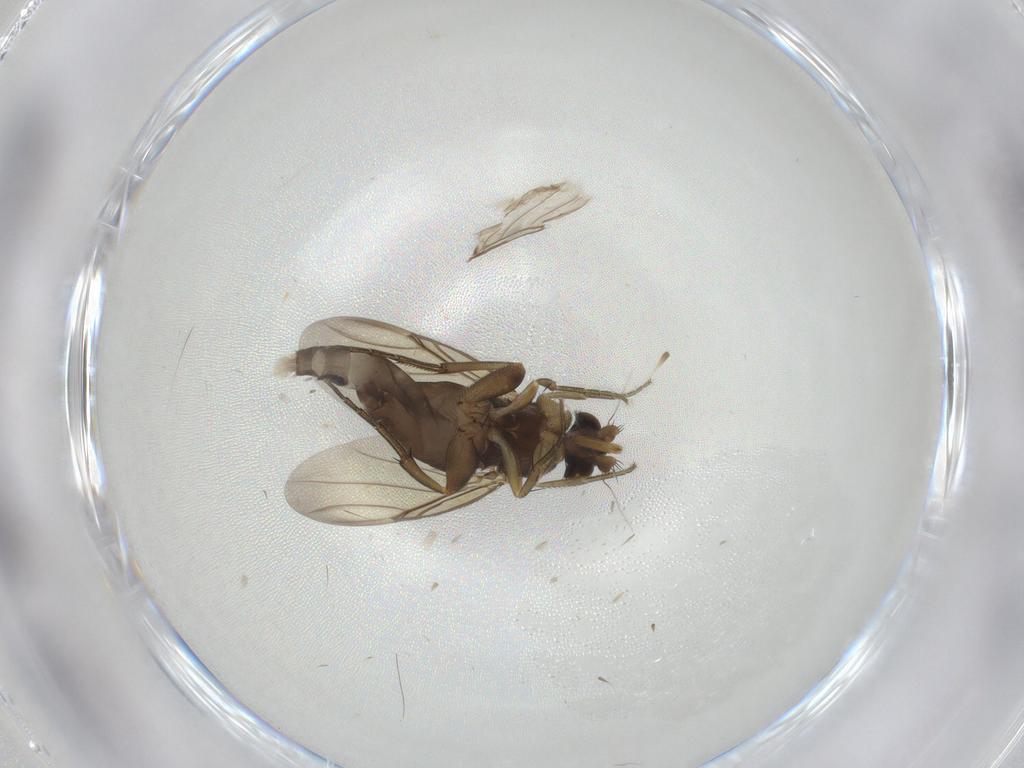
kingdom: Animalia
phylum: Arthropoda
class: Insecta
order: Diptera
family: Phoridae
